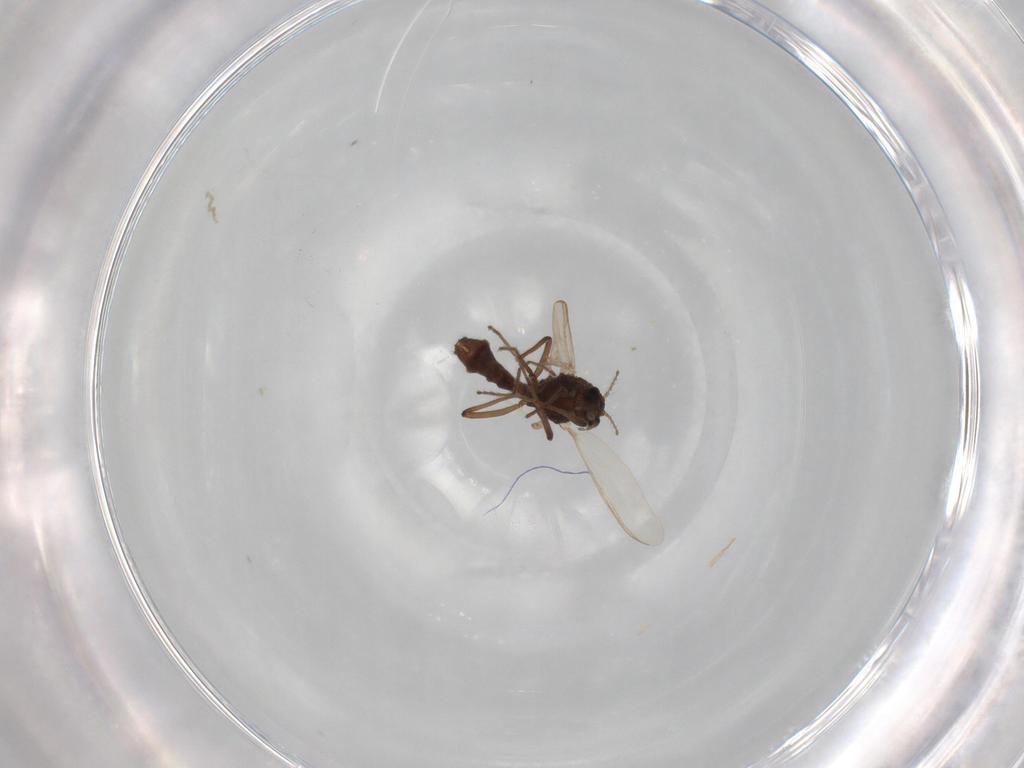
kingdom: Animalia
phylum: Arthropoda
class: Insecta
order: Diptera
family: Chironomidae
